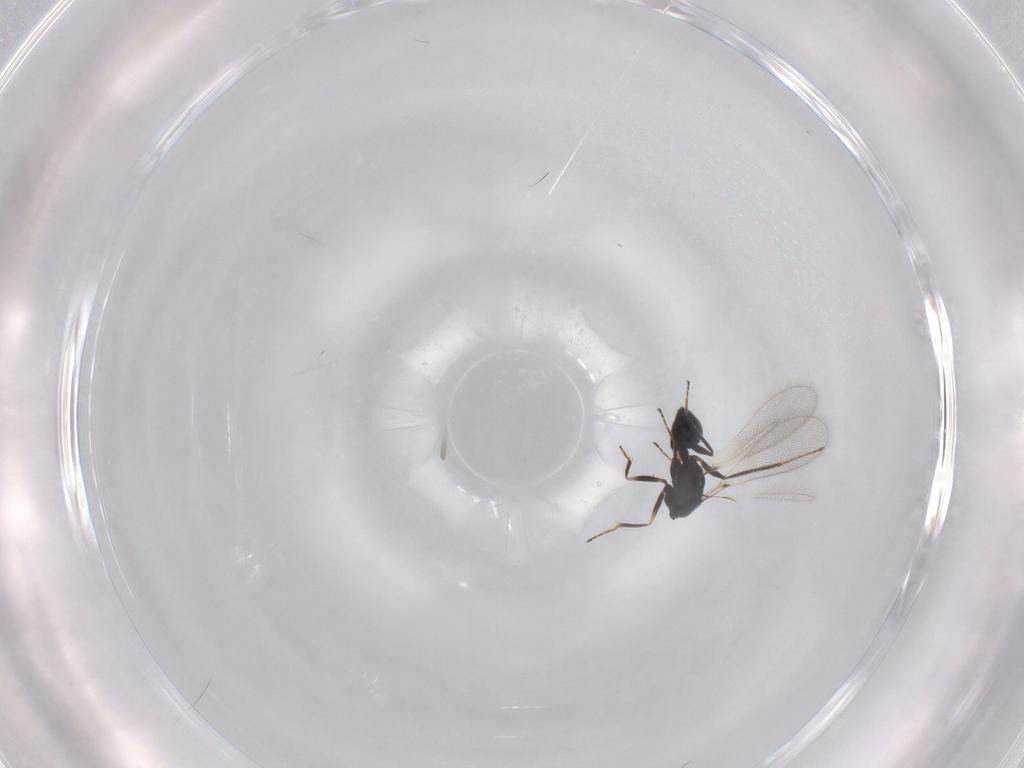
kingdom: Animalia
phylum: Arthropoda
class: Insecta
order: Hymenoptera
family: Mymaridae
